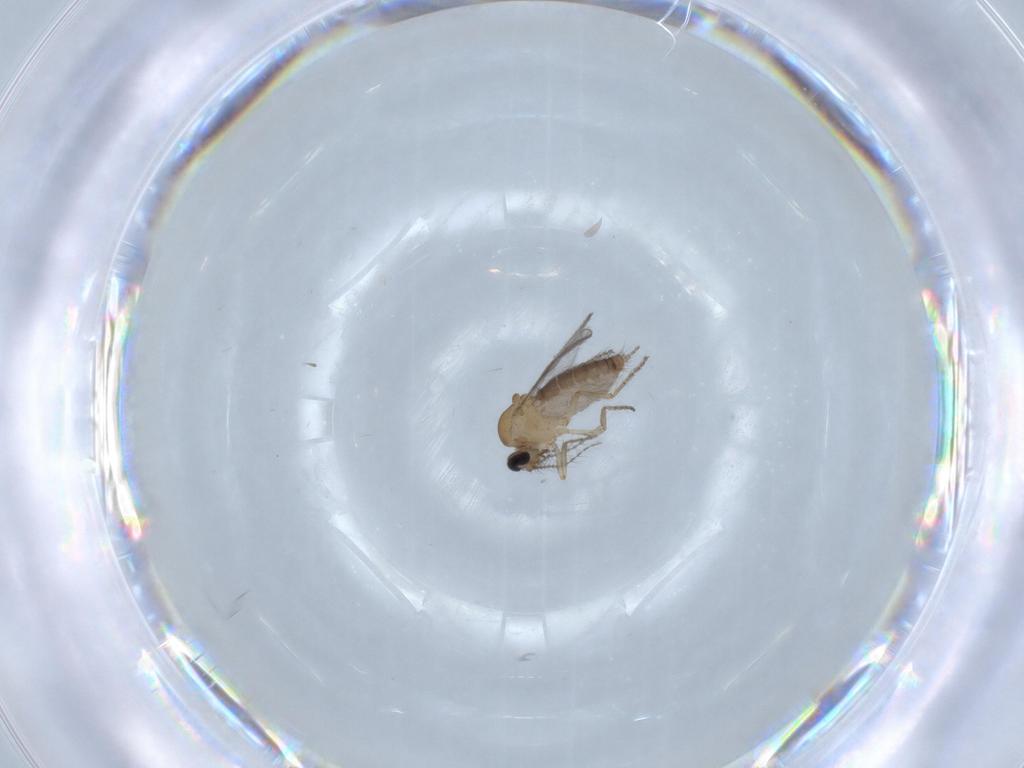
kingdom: Animalia
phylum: Arthropoda
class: Insecta
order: Diptera
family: Ceratopogonidae
